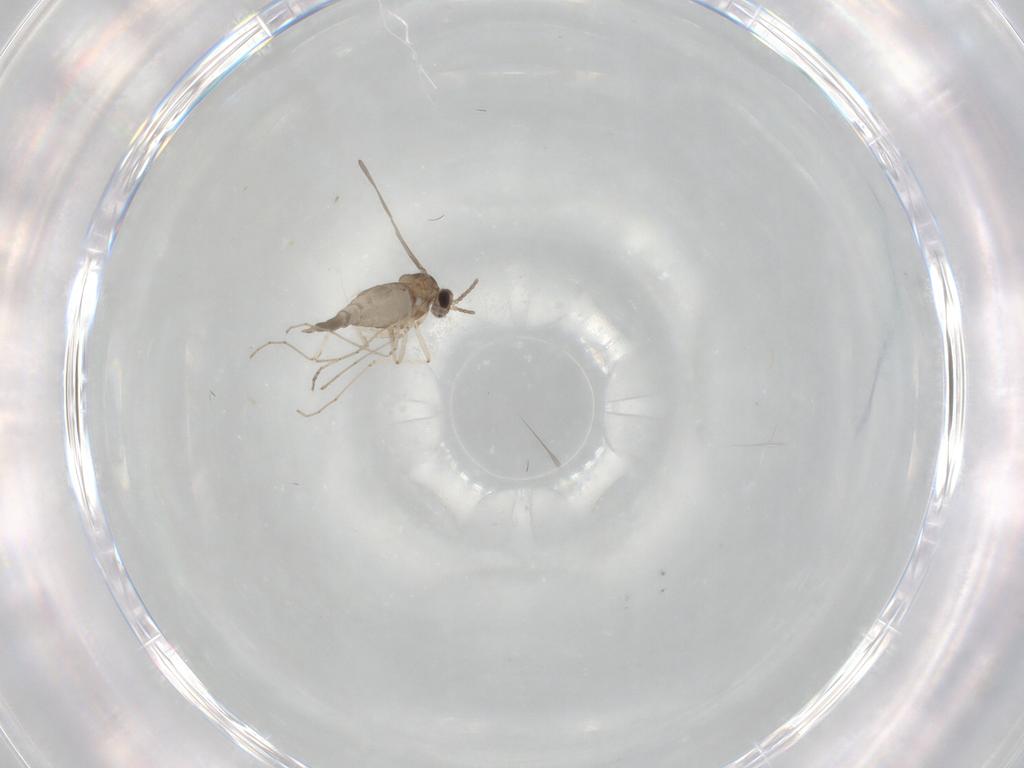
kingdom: Animalia
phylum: Arthropoda
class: Insecta
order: Diptera
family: Cecidomyiidae
